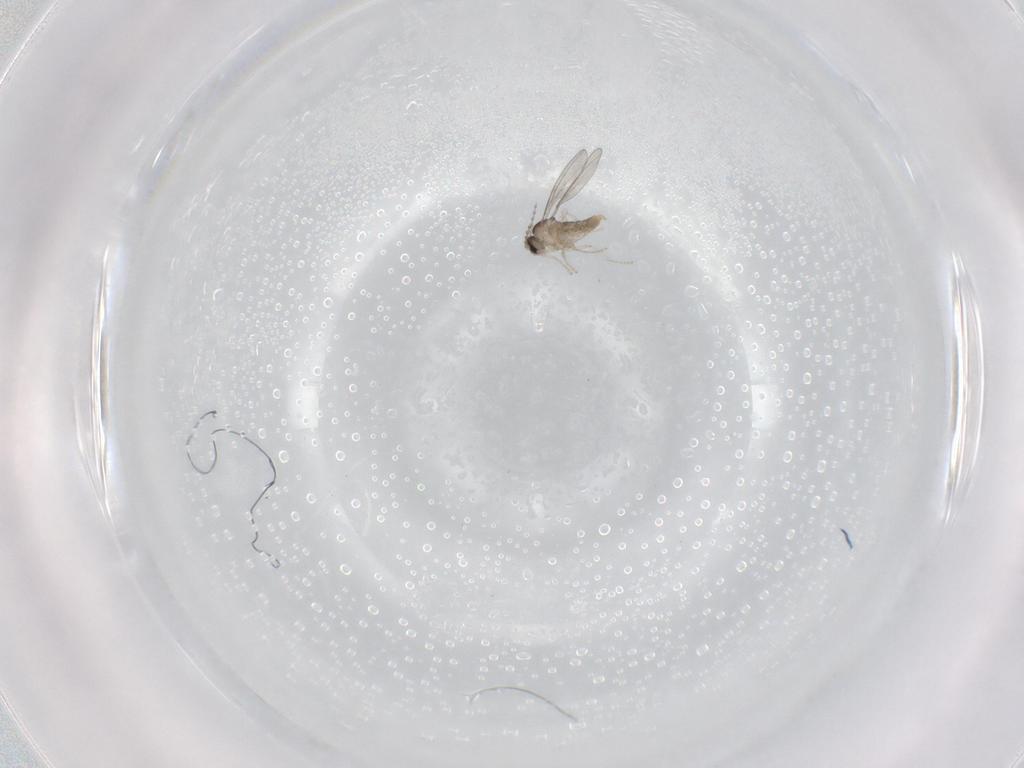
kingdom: Animalia
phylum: Arthropoda
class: Insecta
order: Diptera
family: Cecidomyiidae
